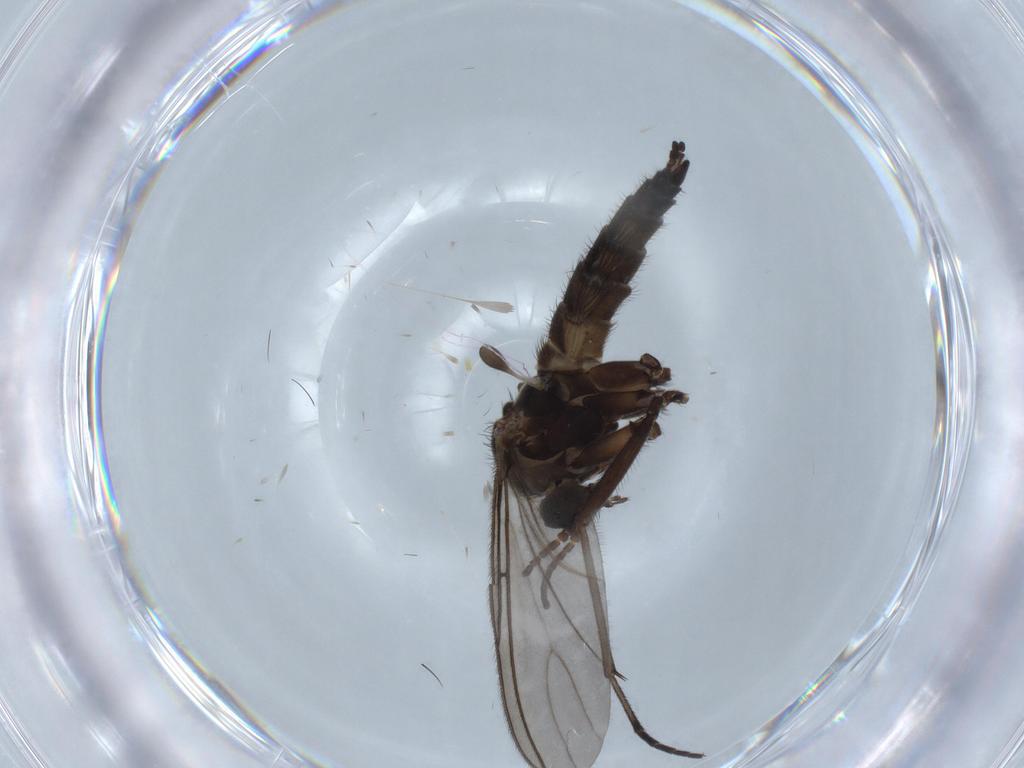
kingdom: Animalia
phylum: Arthropoda
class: Insecta
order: Diptera
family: Sciaridae
